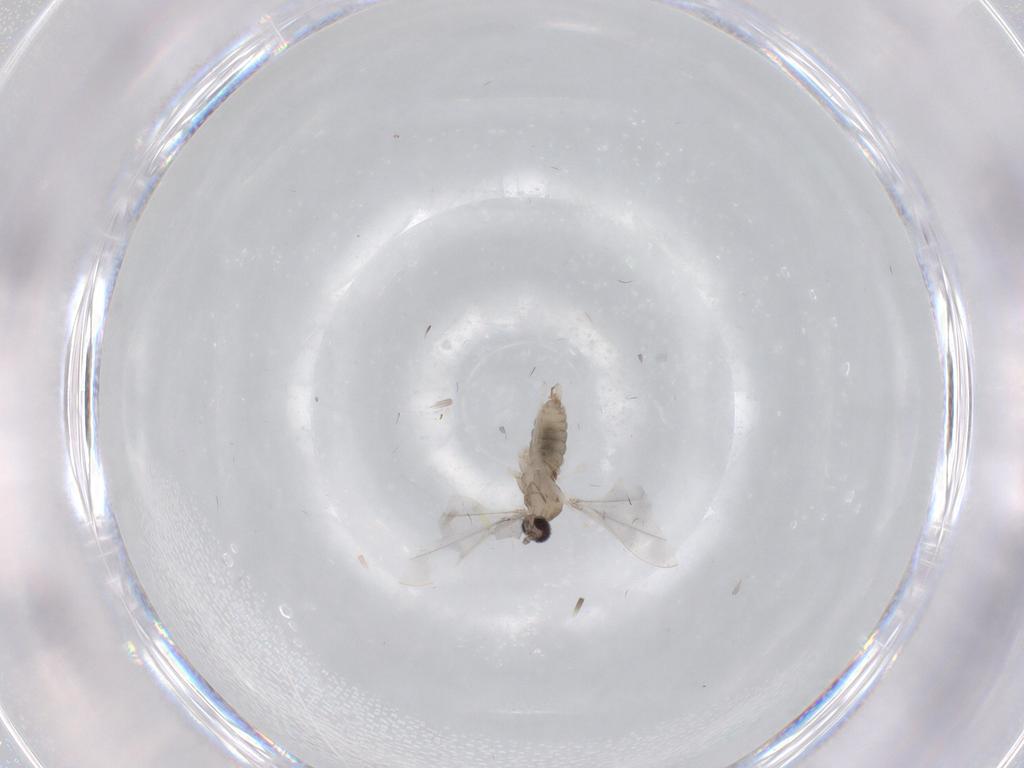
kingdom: Animalia
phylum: Arthropoda
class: Insecta
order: Diptera
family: Cecidomyiidae
